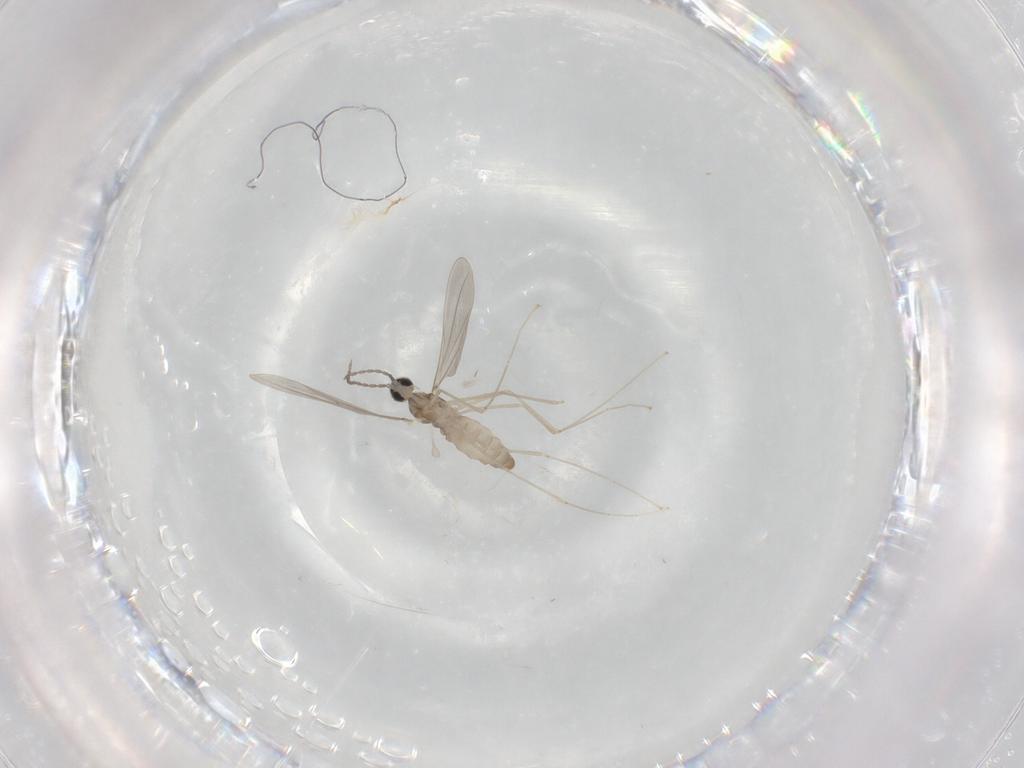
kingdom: Animalia
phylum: Arthropoda
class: Insecta
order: Diptera
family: Cecidomyiidae
